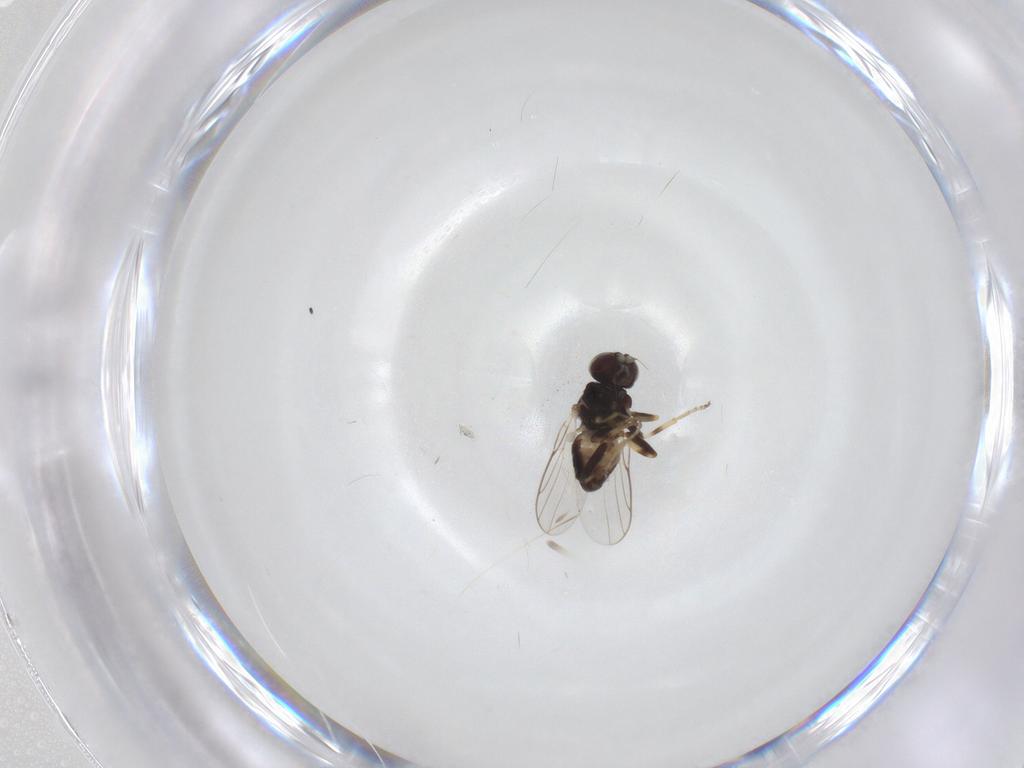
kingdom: Animalia
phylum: Arthropoda
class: Insecta
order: Diptera
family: Chloropidae
